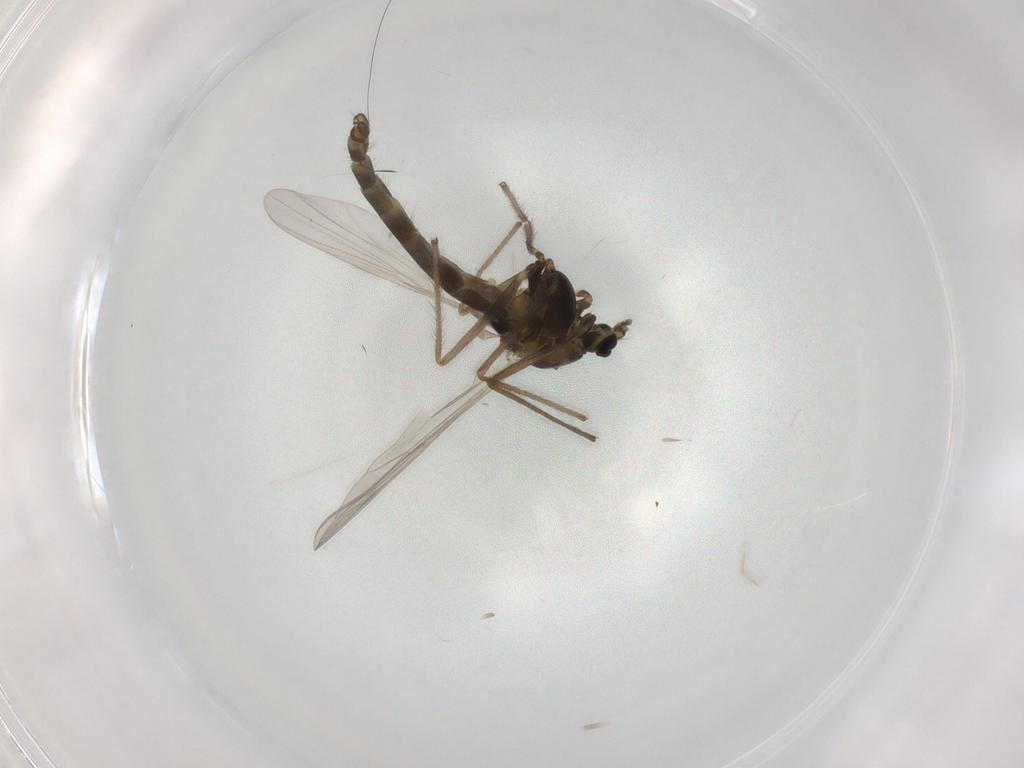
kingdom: Animalia
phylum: Arthropoda
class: Insecta
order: Diptera
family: Chironomidae
